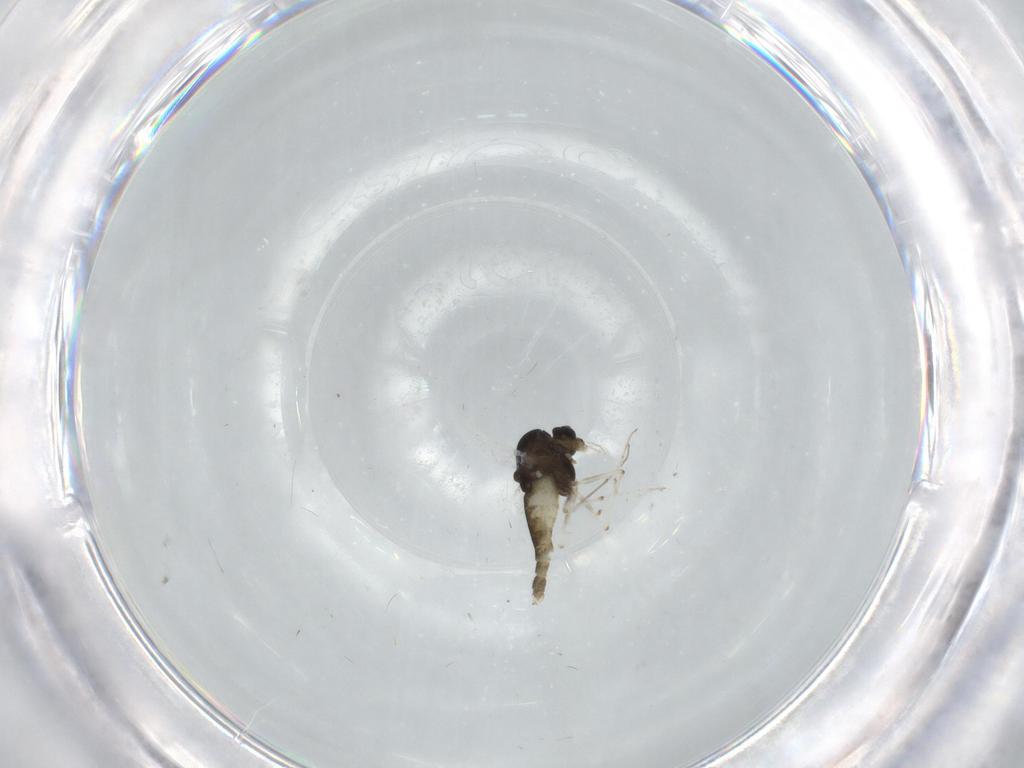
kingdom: Animalia
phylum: Arthropoda
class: Insecta
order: Diptera
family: Chironomidae
